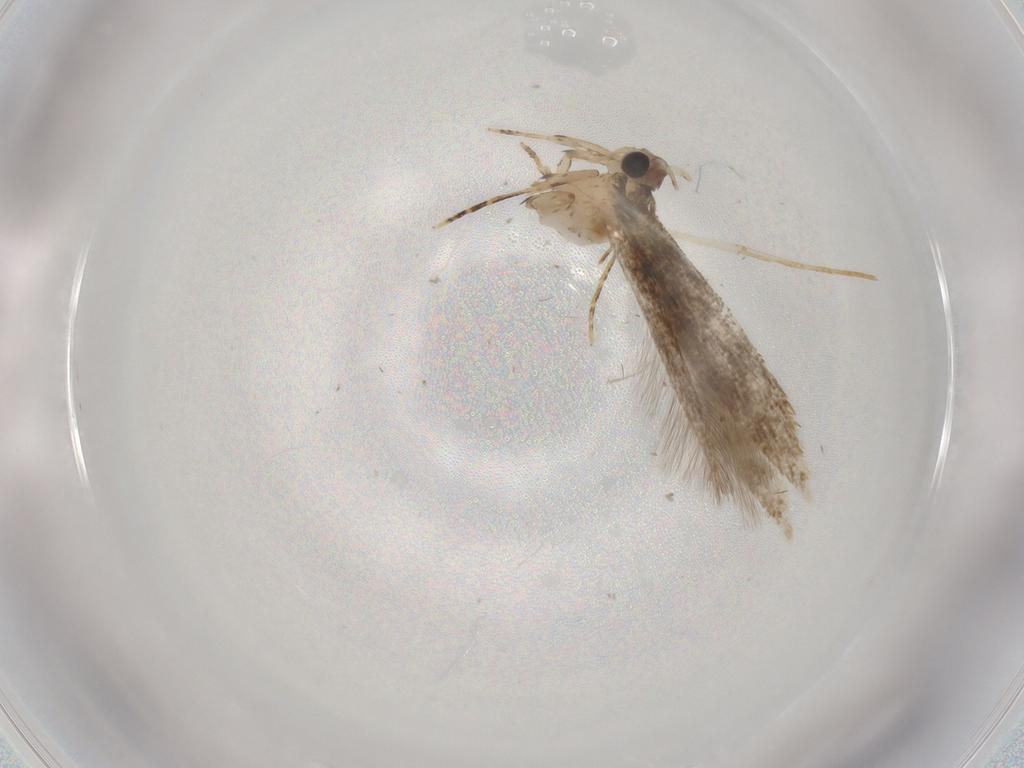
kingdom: Animalia
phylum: Arthropoda
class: Insecta
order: Lepidoptera
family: Tineidae
